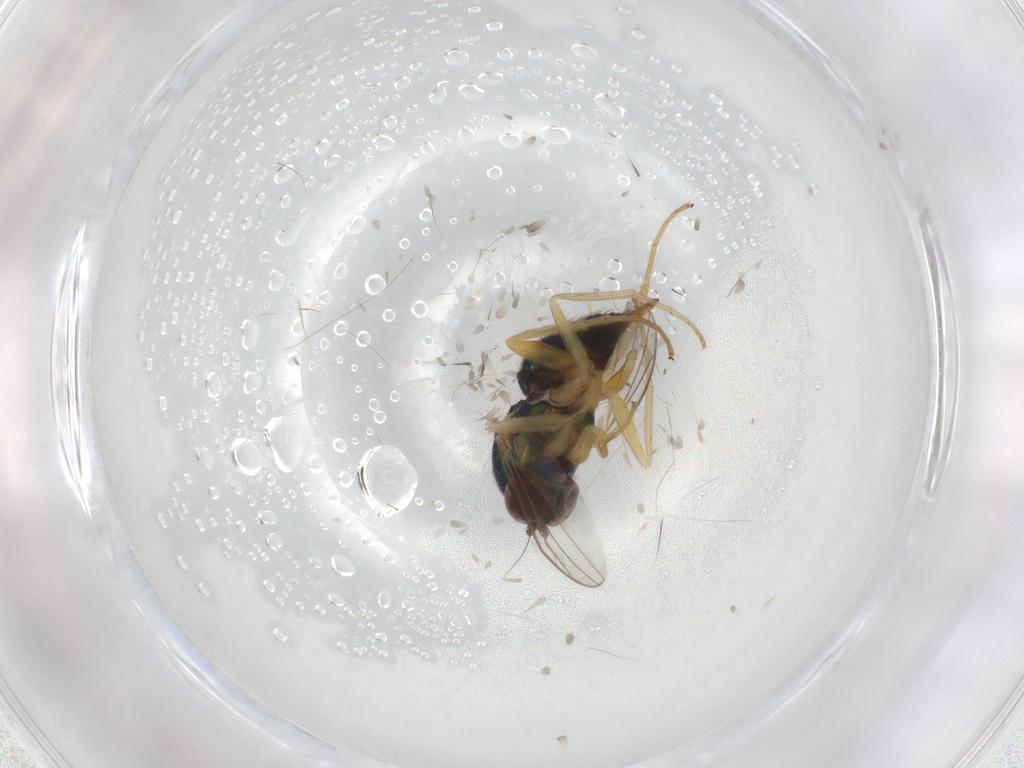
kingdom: Animalia
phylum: Arthropoda
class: Insecta
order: Diptera
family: Dolichopodidae
